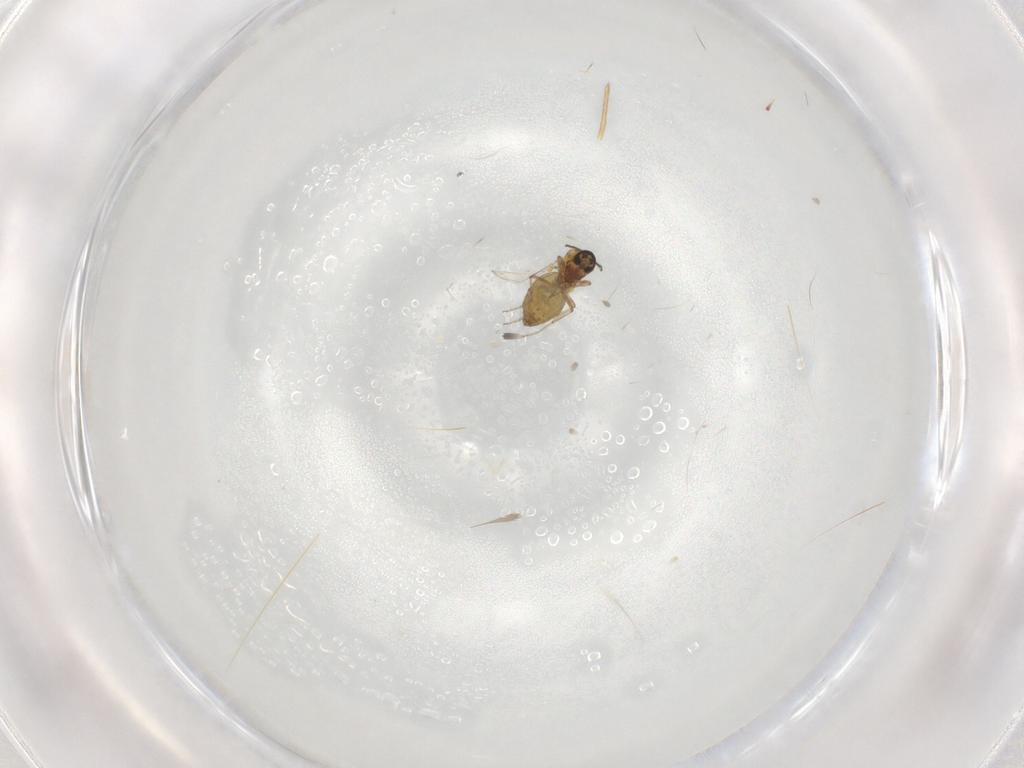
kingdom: Animalia
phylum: Arthropoda
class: Insecta
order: Diptera
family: Ceratopogonidae
